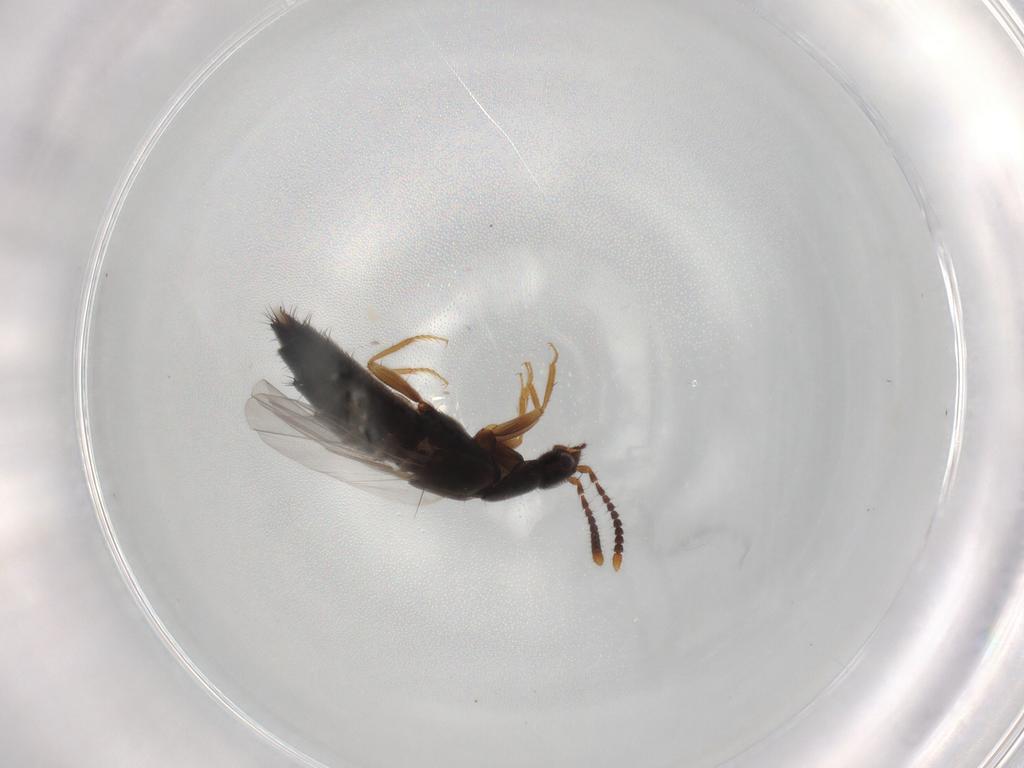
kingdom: Animalia
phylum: Arthropoda
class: Insecta
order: Coleoptera
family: Staphylinidae
